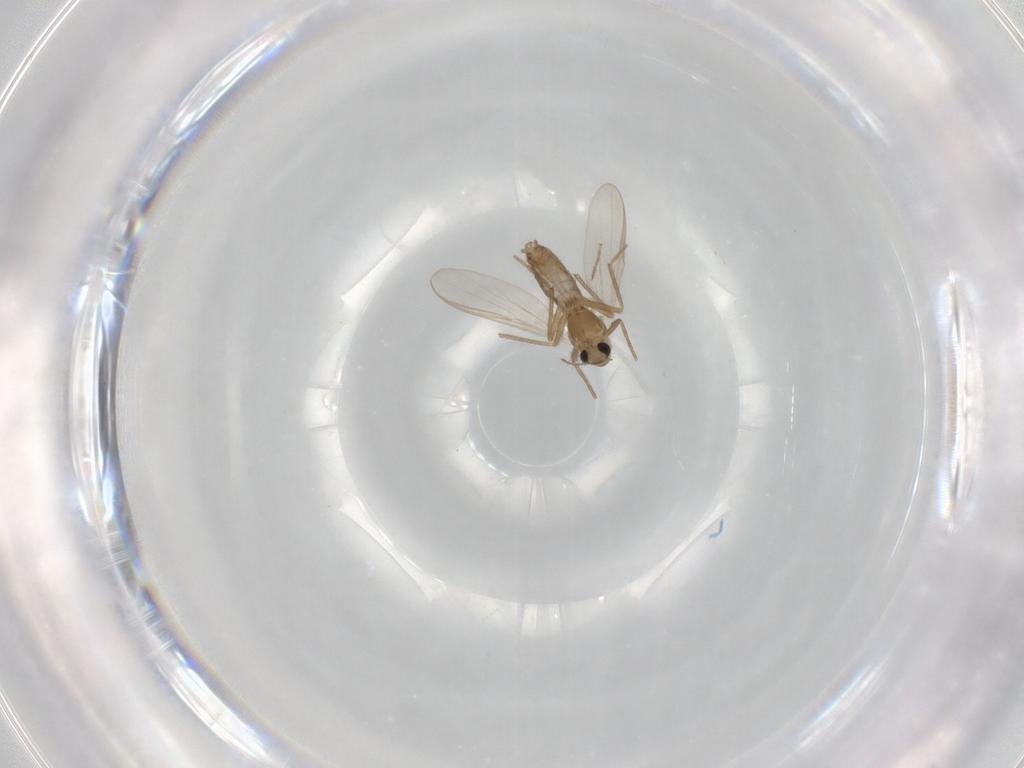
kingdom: Animalia
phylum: Arthropoda
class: Insecta
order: Diptera
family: Chironomidae
